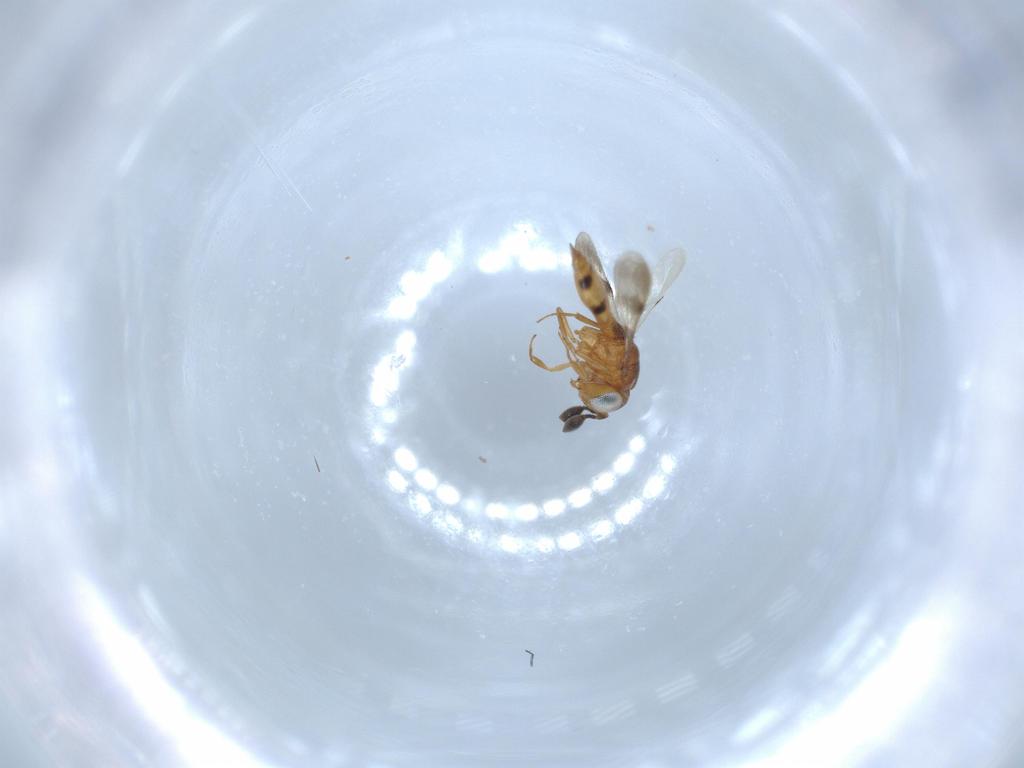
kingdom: Animalia
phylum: Arthropoda
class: Insecta
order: Hymenoptera
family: Scelionidae
